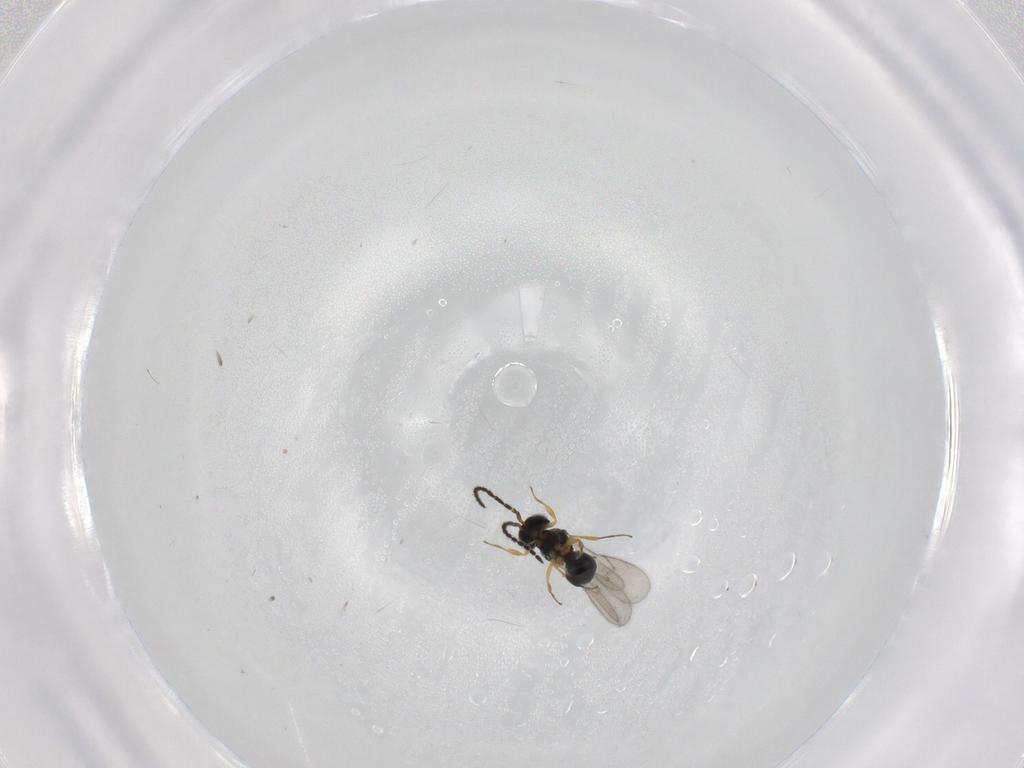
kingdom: Animalia
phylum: Arthropoda
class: Insecta
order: Hymenoptera
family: Scelionidae
